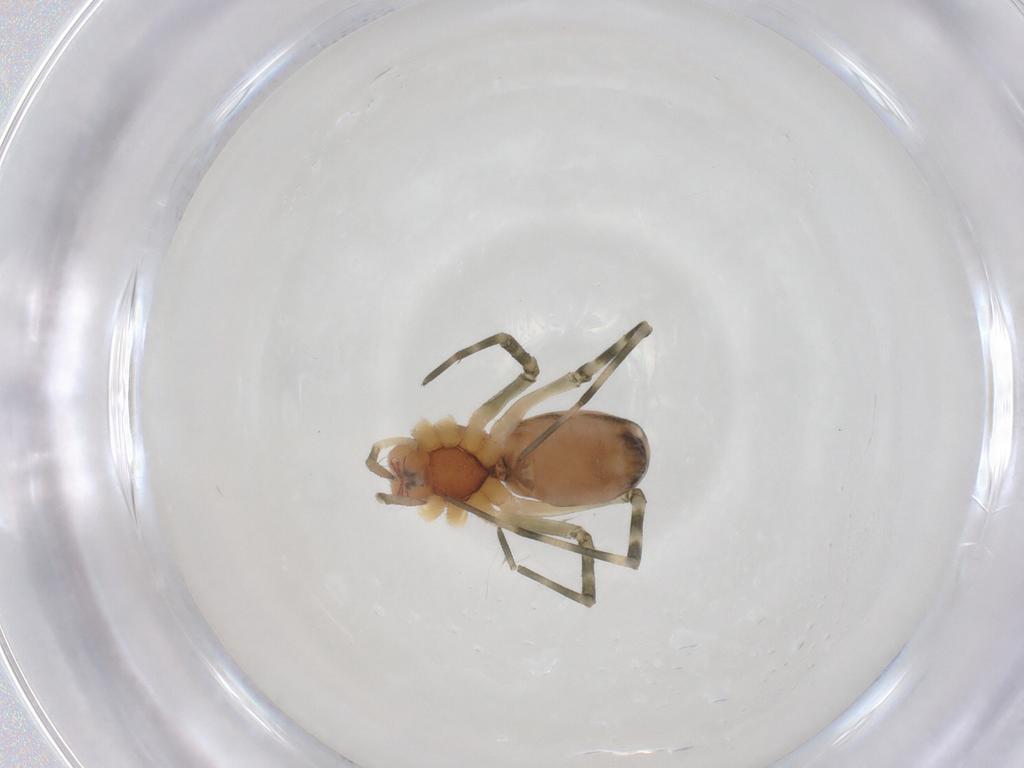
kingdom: Animalia
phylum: Arthropoda
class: Arachnida
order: Araneae
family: Linyphiidae
